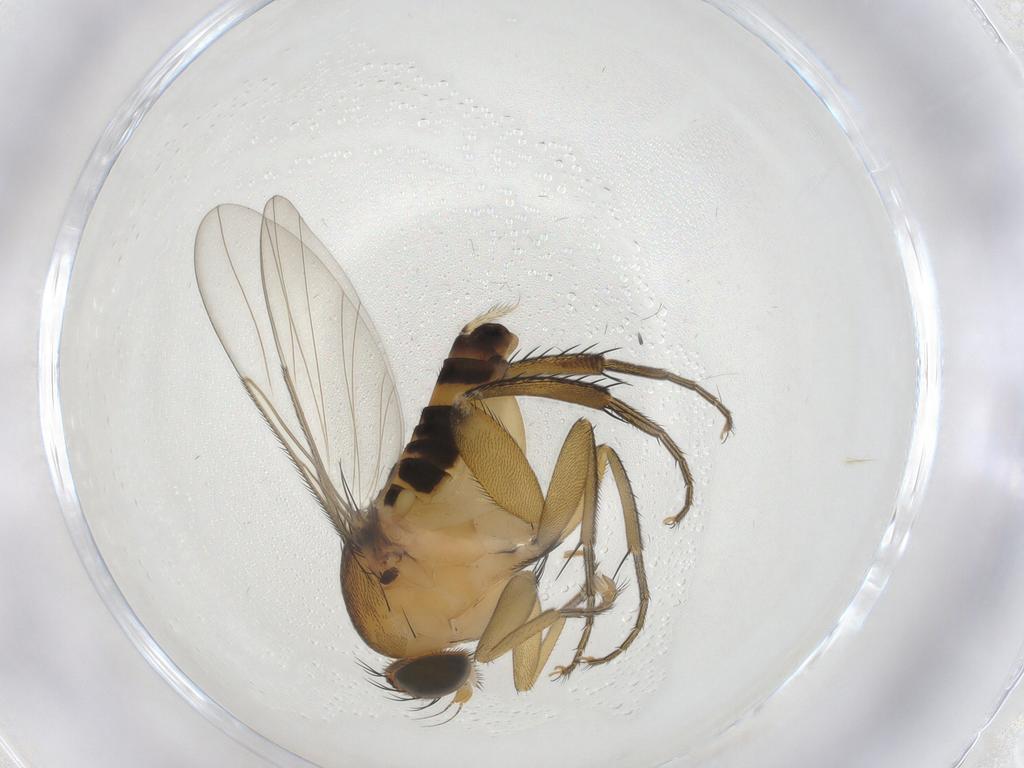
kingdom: Animalia
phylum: Arthropoda
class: Insecta
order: Diptera
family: Phoridae
